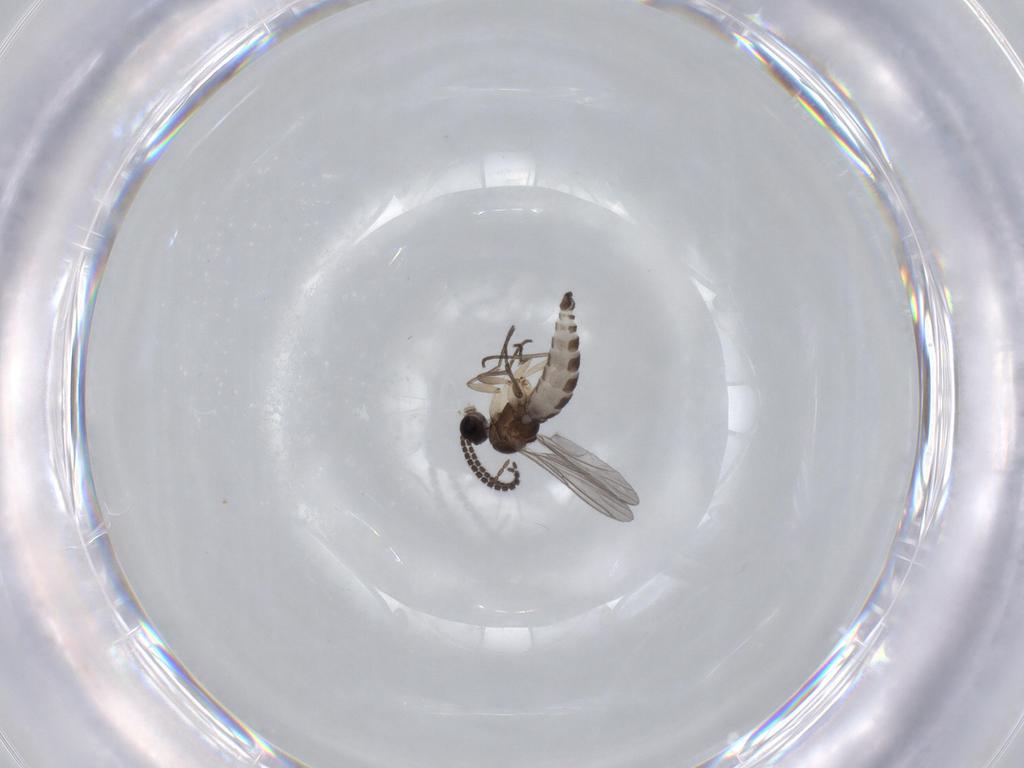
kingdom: Animalia
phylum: Arthropoda
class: Insecta
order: Diptera
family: Sciaridae
